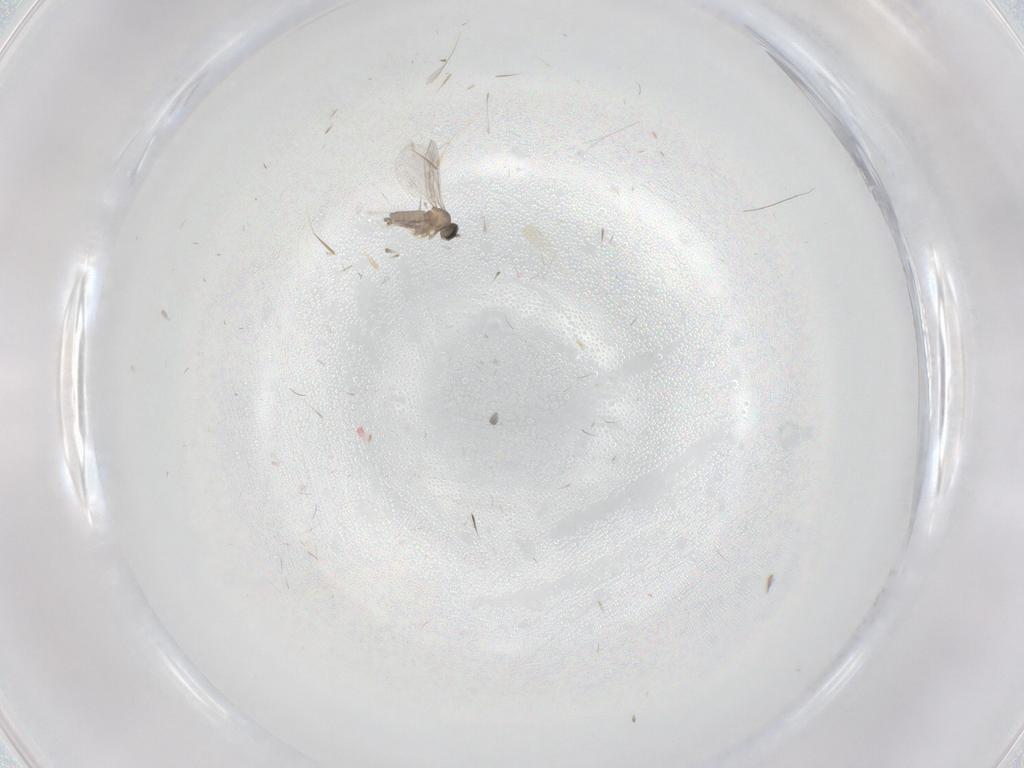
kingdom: Animalia
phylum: Arthropoda
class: Insecta
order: Diptera
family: Cecidomyiidae
